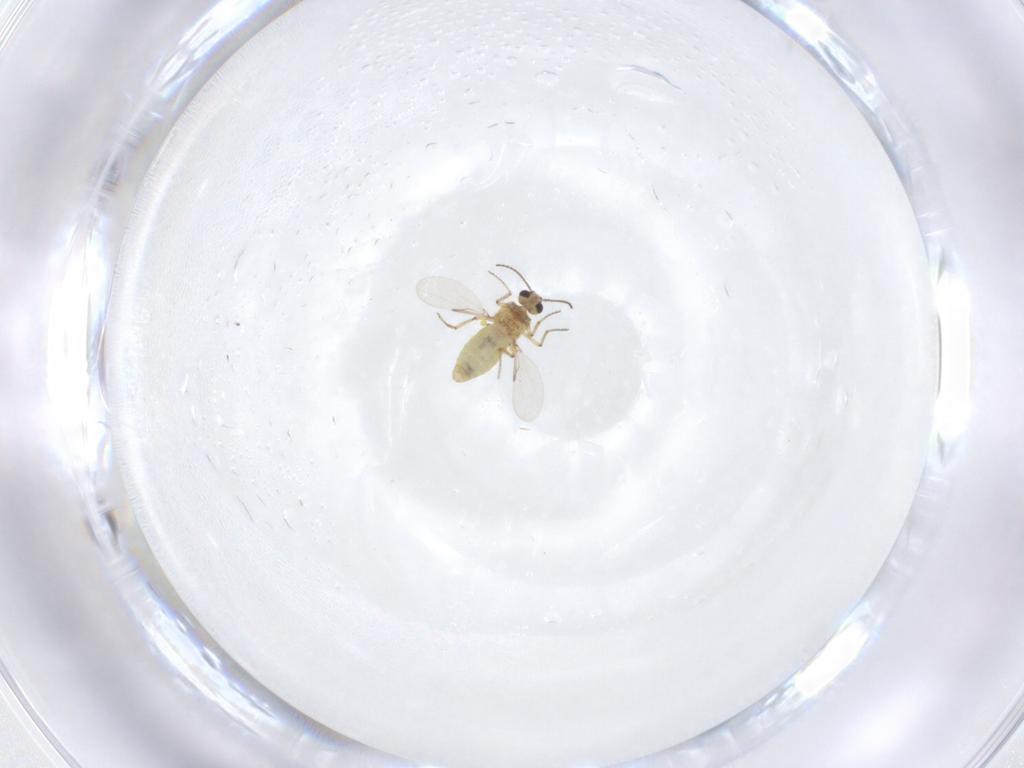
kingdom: Animalia
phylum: Arthropoda
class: Insecta
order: Diptera
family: Ceratopogonidae
